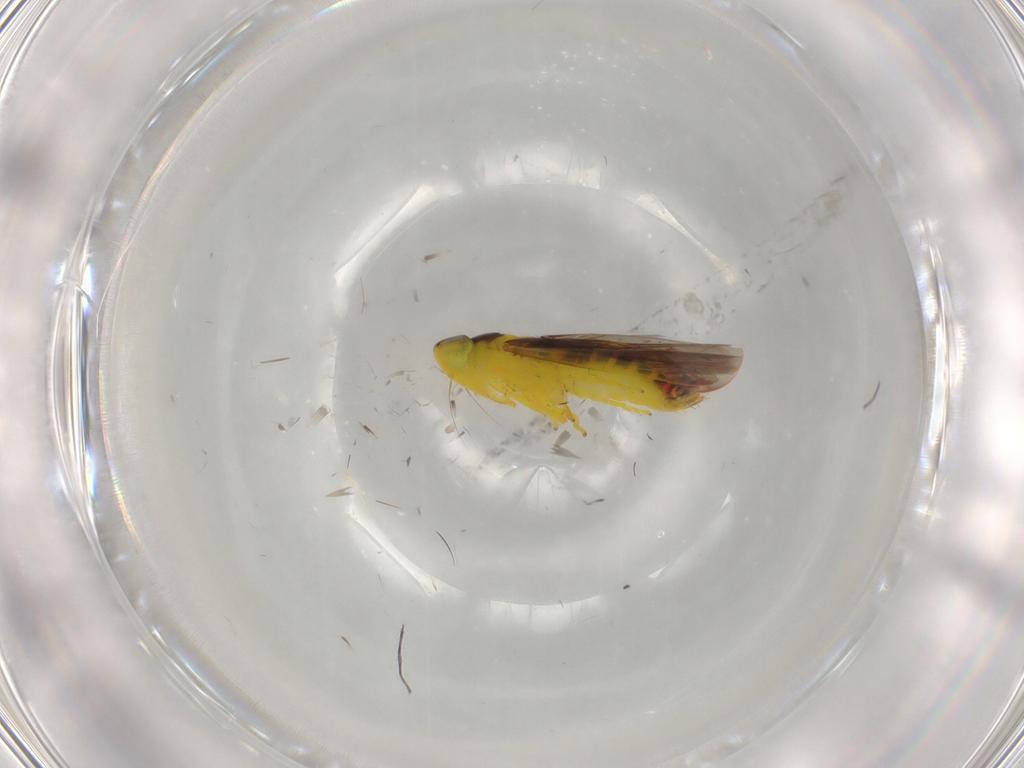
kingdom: Animalia
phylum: Arthropoda
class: Insecta
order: Hemiptera
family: Cicadellidae
